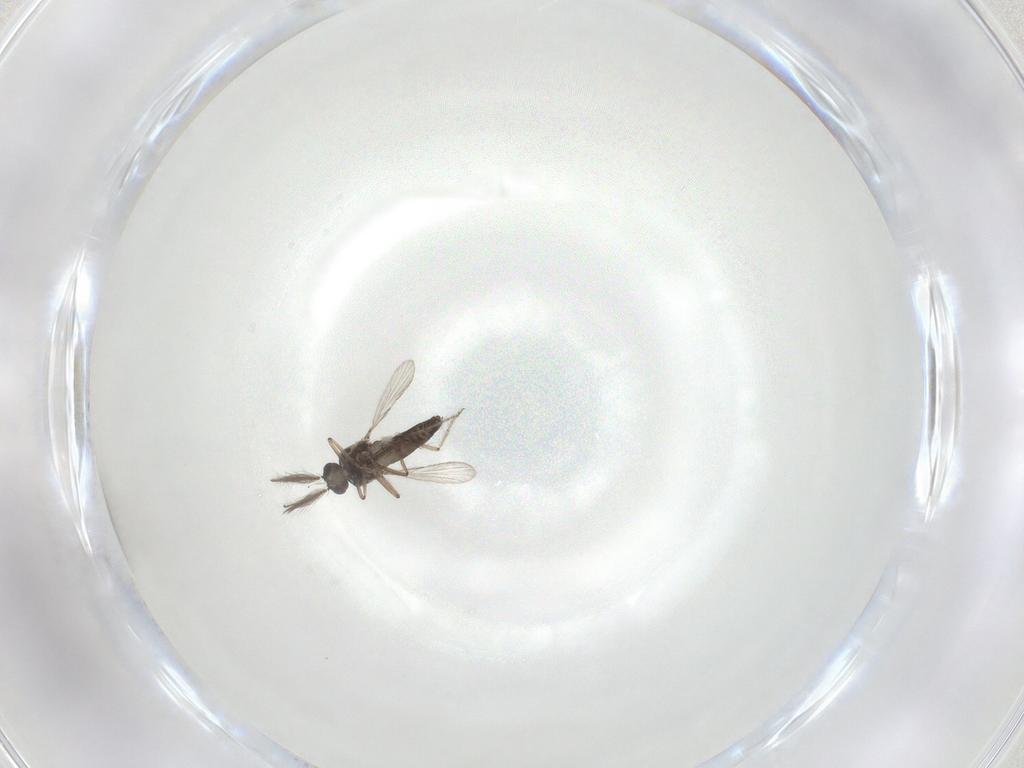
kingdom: Animalia
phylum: Arthropoda
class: Insecta
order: Diptera
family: Ceratopogonidae
